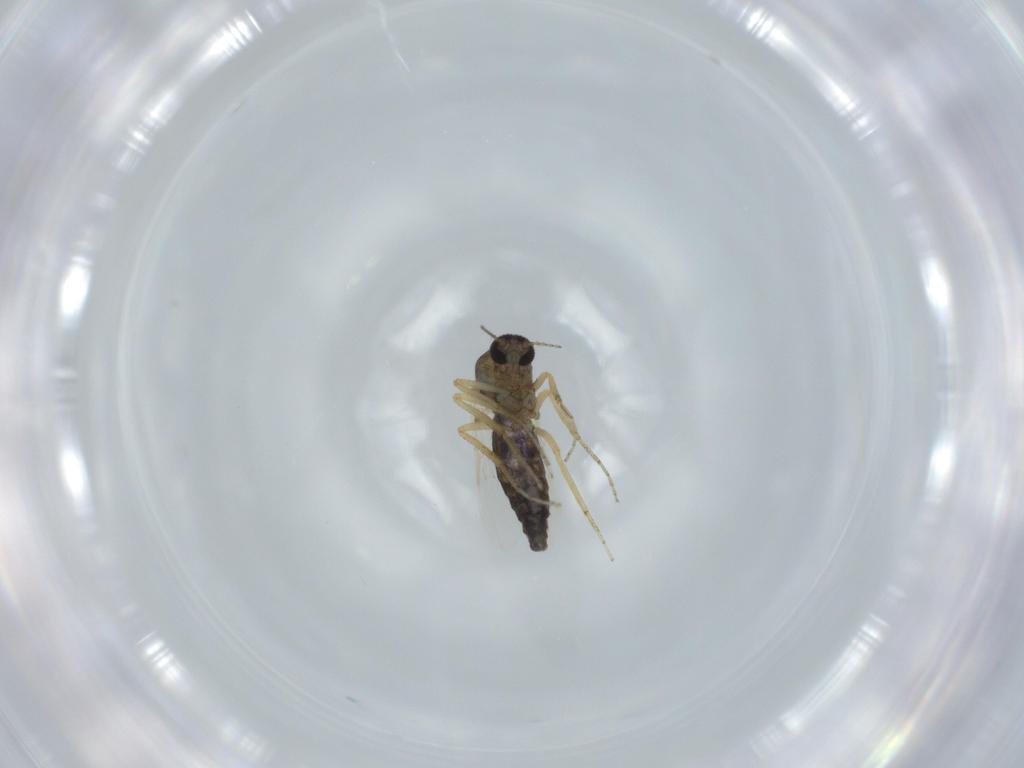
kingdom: Animalia
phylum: Arthropoda
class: Insecta
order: Diptera
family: Ceratopogonidae
